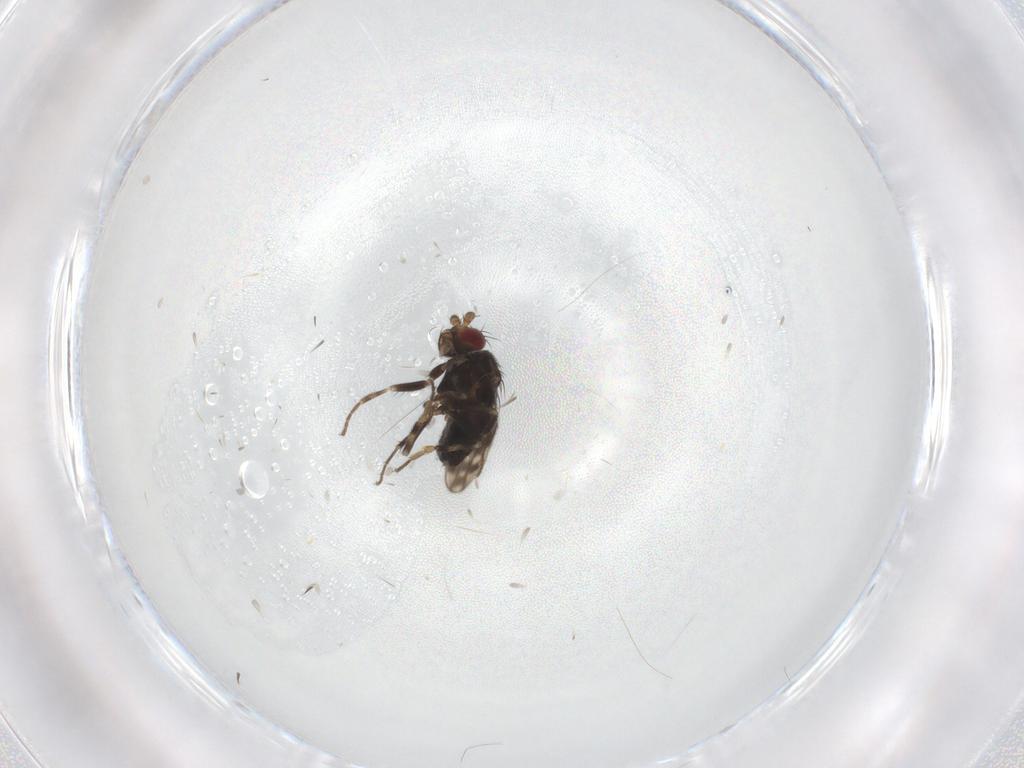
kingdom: Animalia
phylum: Arthropoda
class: Insecta
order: Diptera
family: Sphaeroceridae
